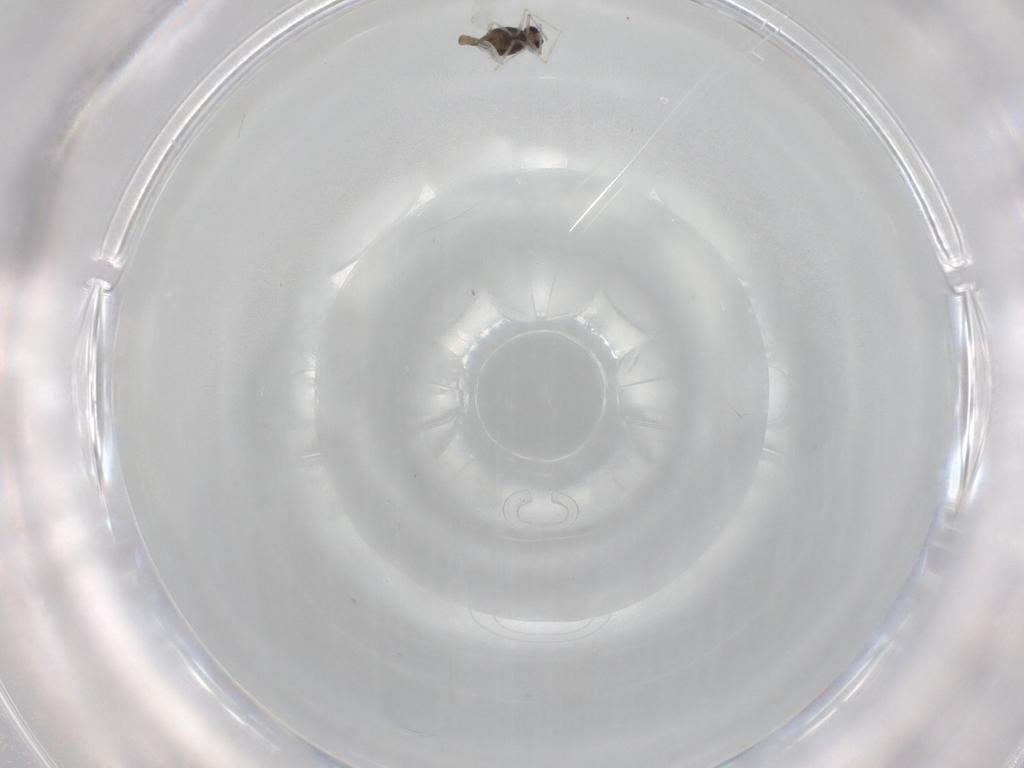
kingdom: Animalia
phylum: Arthropoda
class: Insecta
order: Diptera
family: Chironomidae
